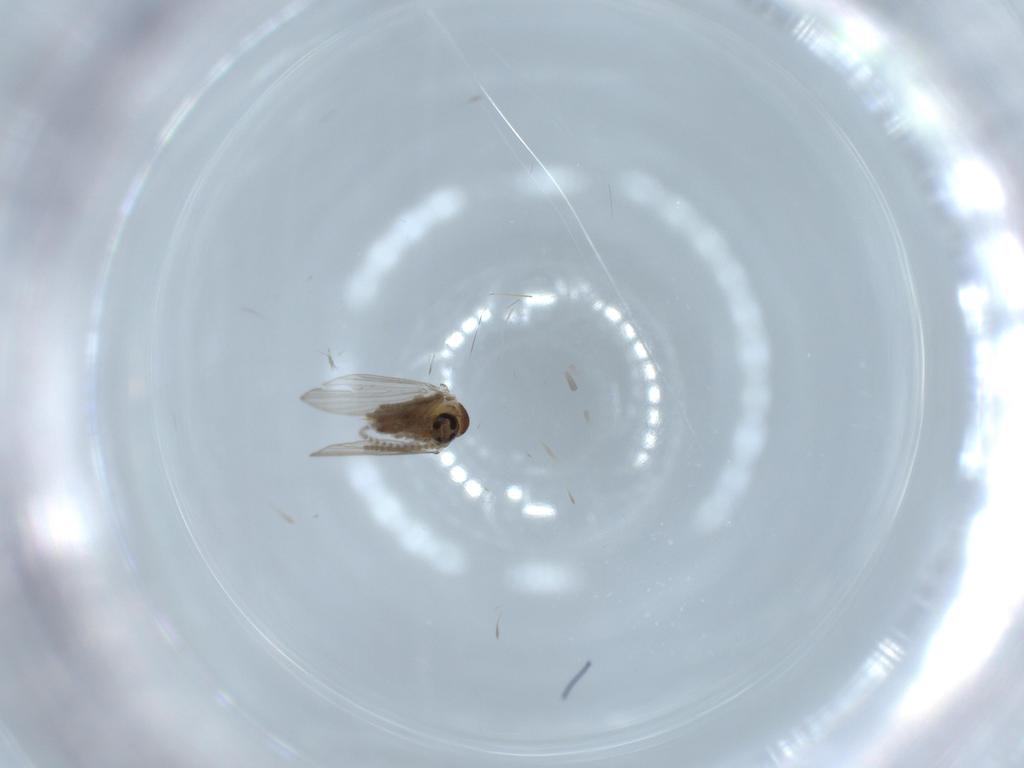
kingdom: Animalia
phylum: Arthropoda
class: Insecta
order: Diptera
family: Psychodidae
